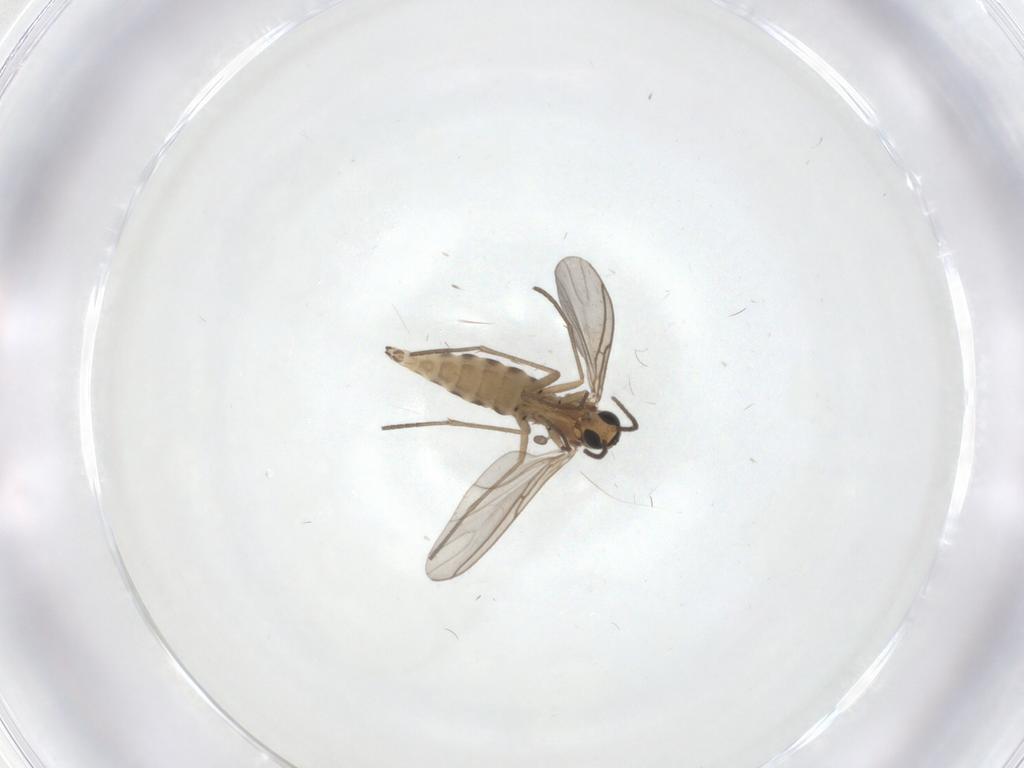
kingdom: Animalia
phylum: Arthropoda
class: Insecta
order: Diptera
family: Sciaridae
